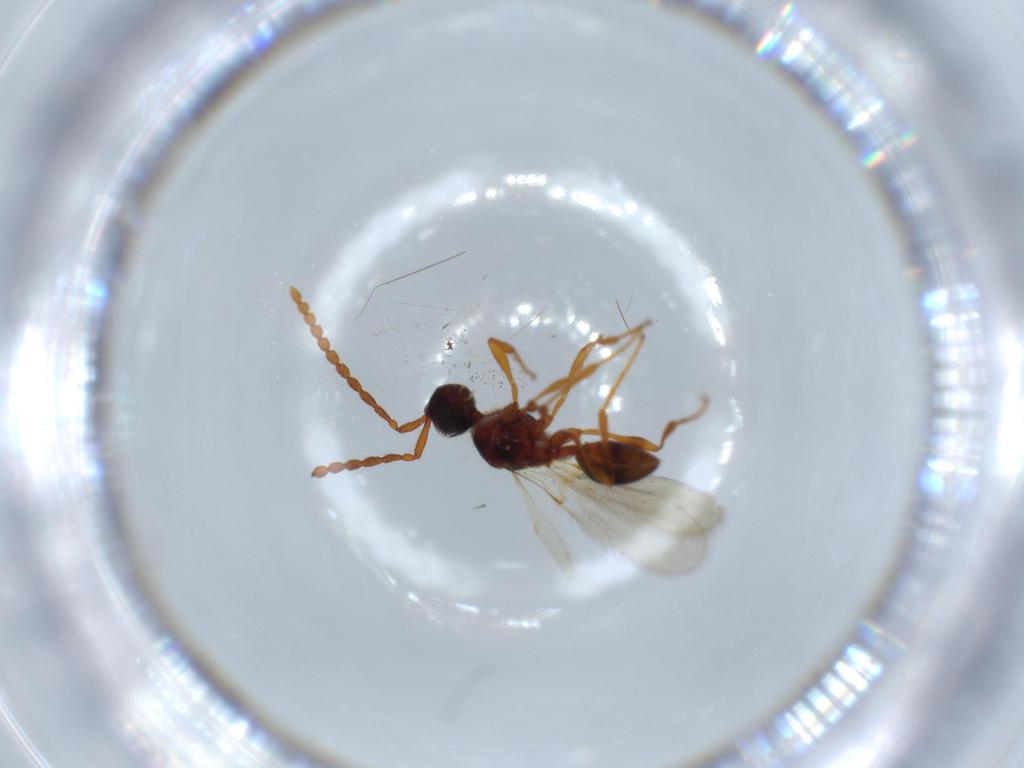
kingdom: Animalia
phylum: Arthropoda
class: Insecta
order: Hymenoptera
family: Diapriidae
